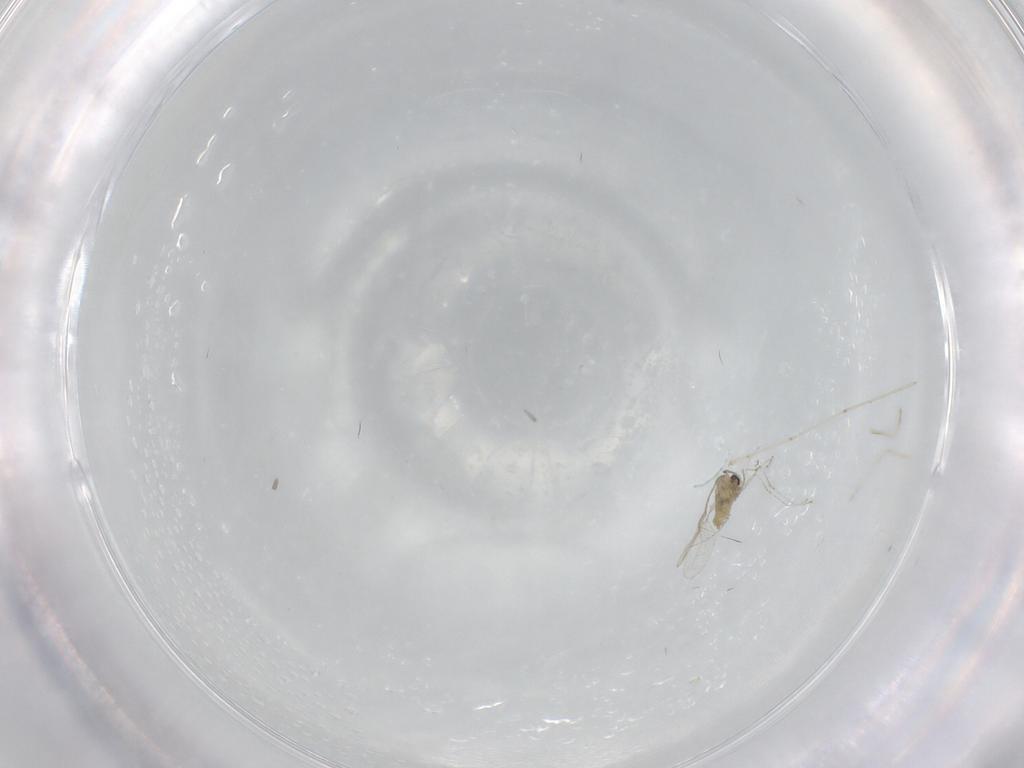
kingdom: Animalia
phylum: Arthropoda
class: Insecta
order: Diptera
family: Cecidomyiidae
